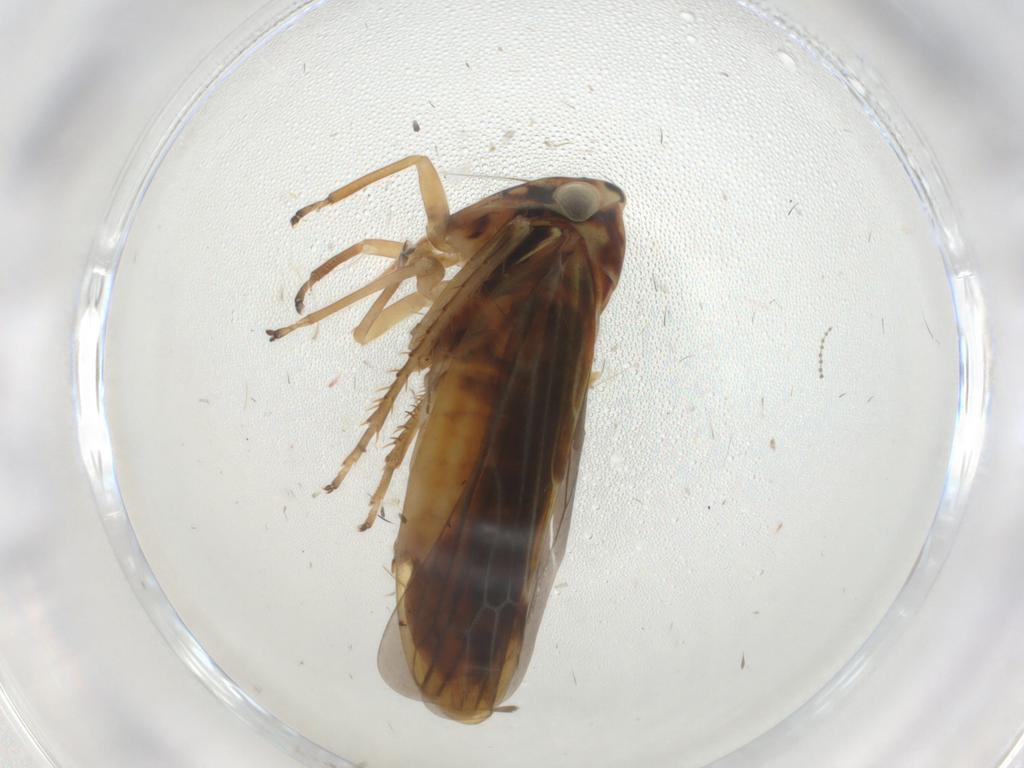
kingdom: Animalia
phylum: Arthropoda
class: Insecta
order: Hemiptera
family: Cicadellidae
